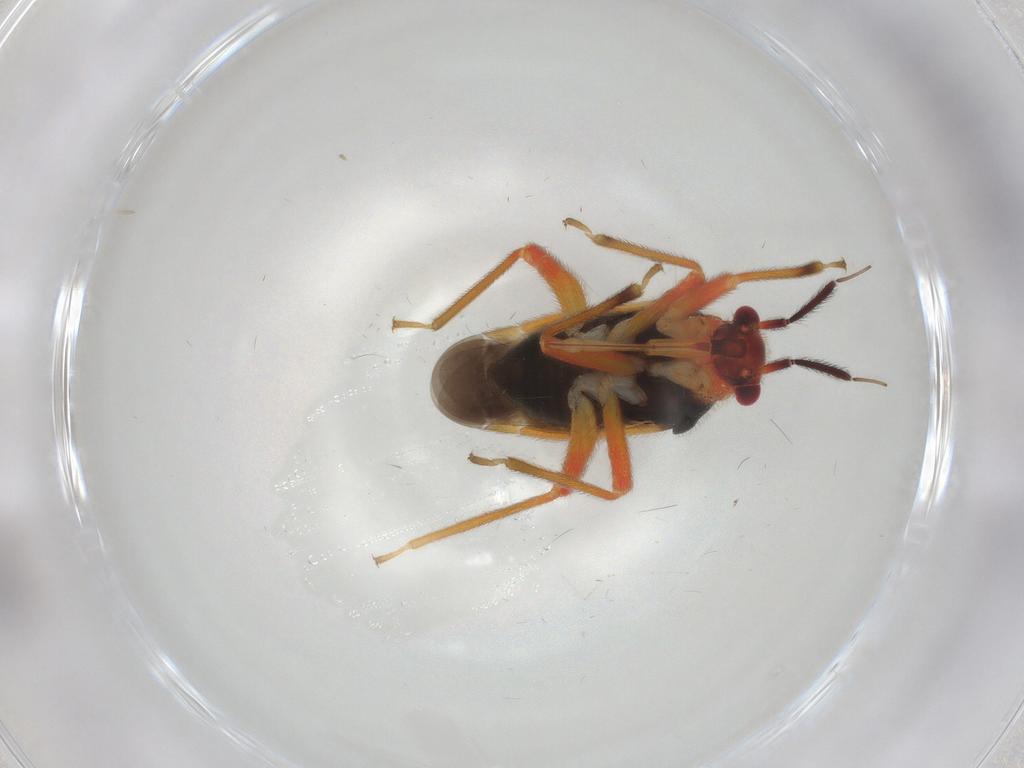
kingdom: Animalia
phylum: Arthropoda
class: Insecta
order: Hemiptera
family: Miridae
